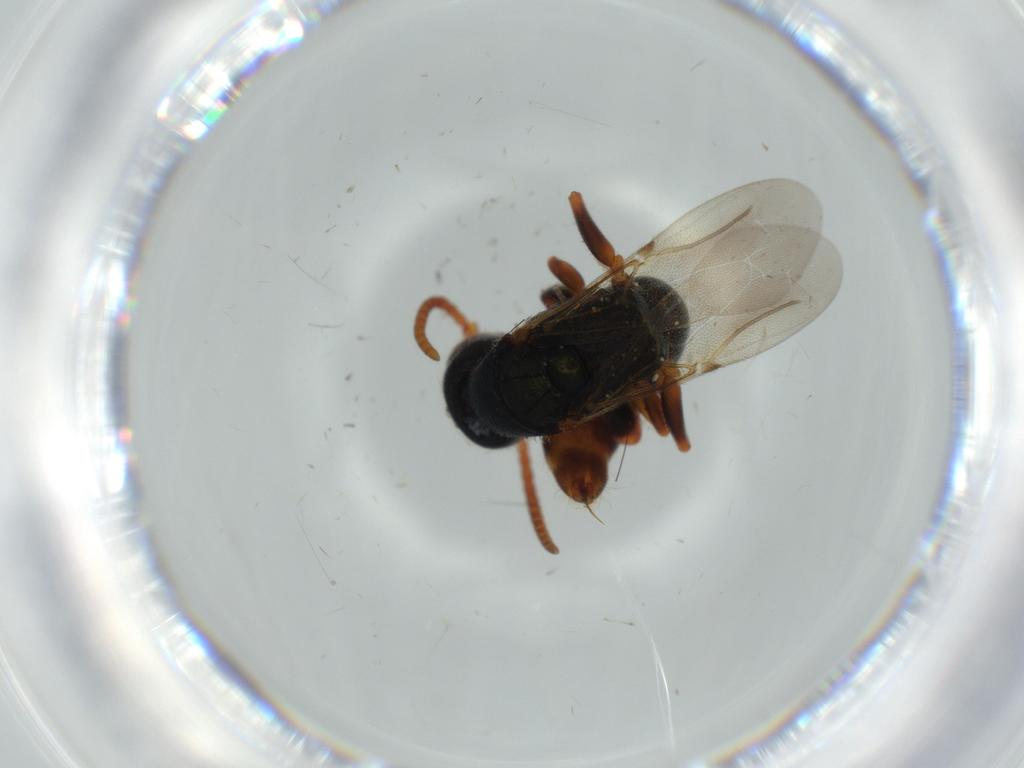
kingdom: Animalia
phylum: Arthropoda
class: Insecta
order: Hymenoptera
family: Bethylidae
